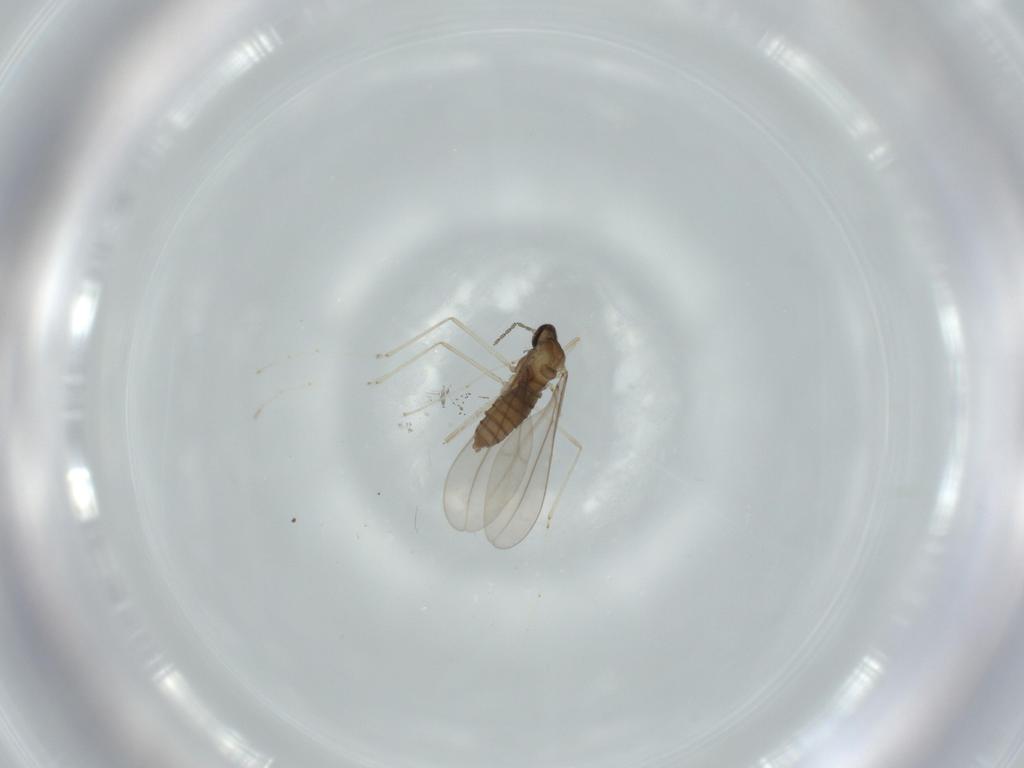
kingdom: Animalia
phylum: Arthropoda
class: Insecta
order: Diptera
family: Cecidomyiidae
